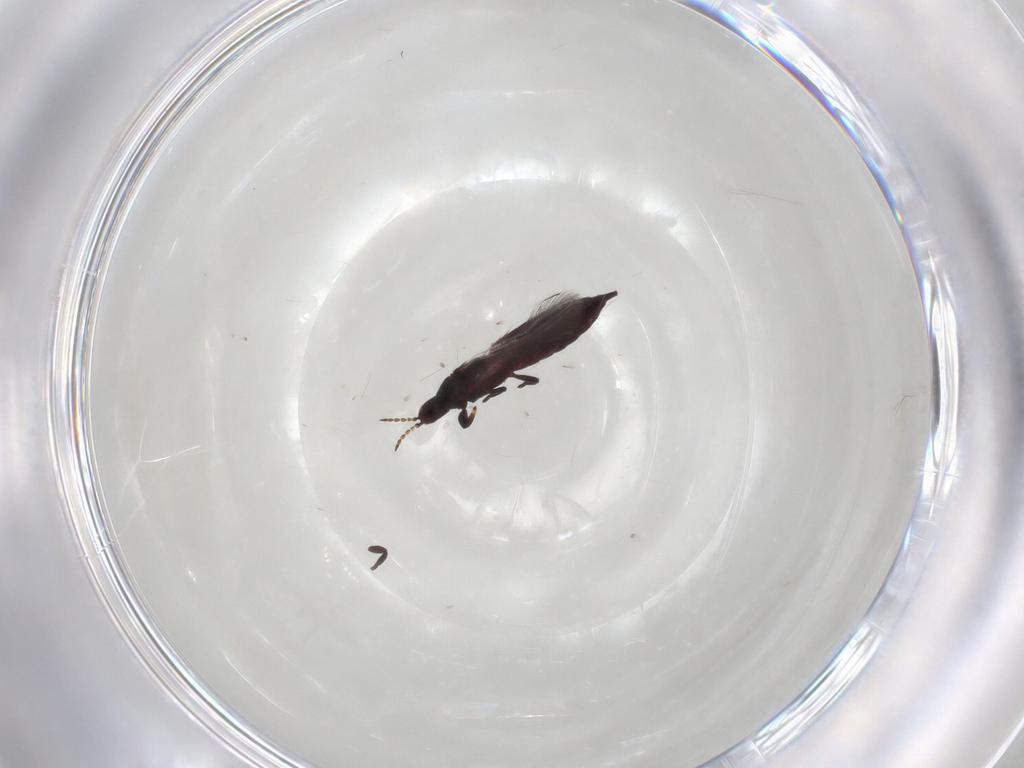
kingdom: Animalia
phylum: Arthropoda
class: Insecta
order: Thysanoptera
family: Phlaeothripidae
